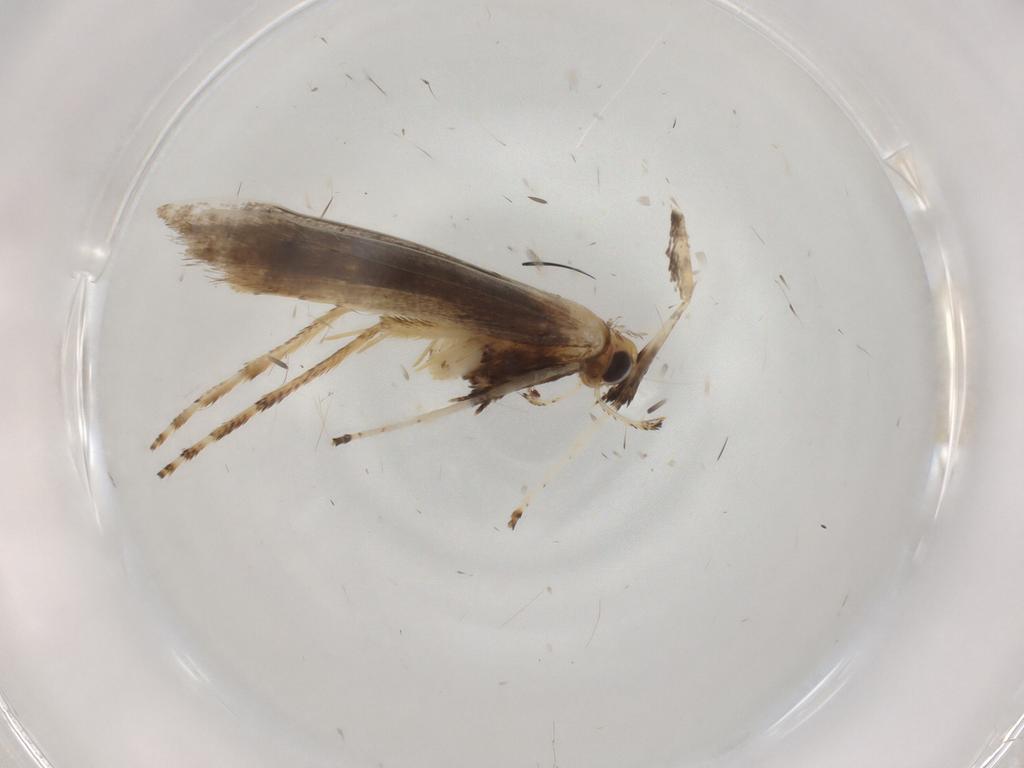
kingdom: Animalia
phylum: Arthropoda
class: Insecta
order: Lepidoptera
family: Gracillariidae
